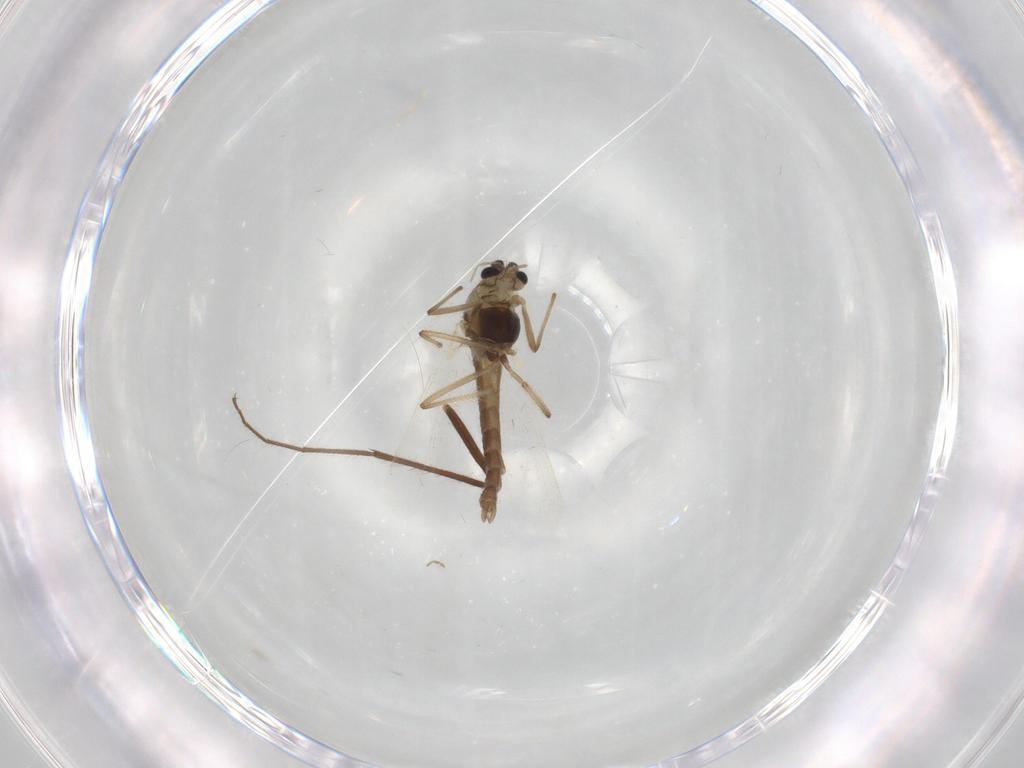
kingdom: Animalia
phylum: Arthropoda
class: Insecta
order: Diptera
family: Chironomidae
